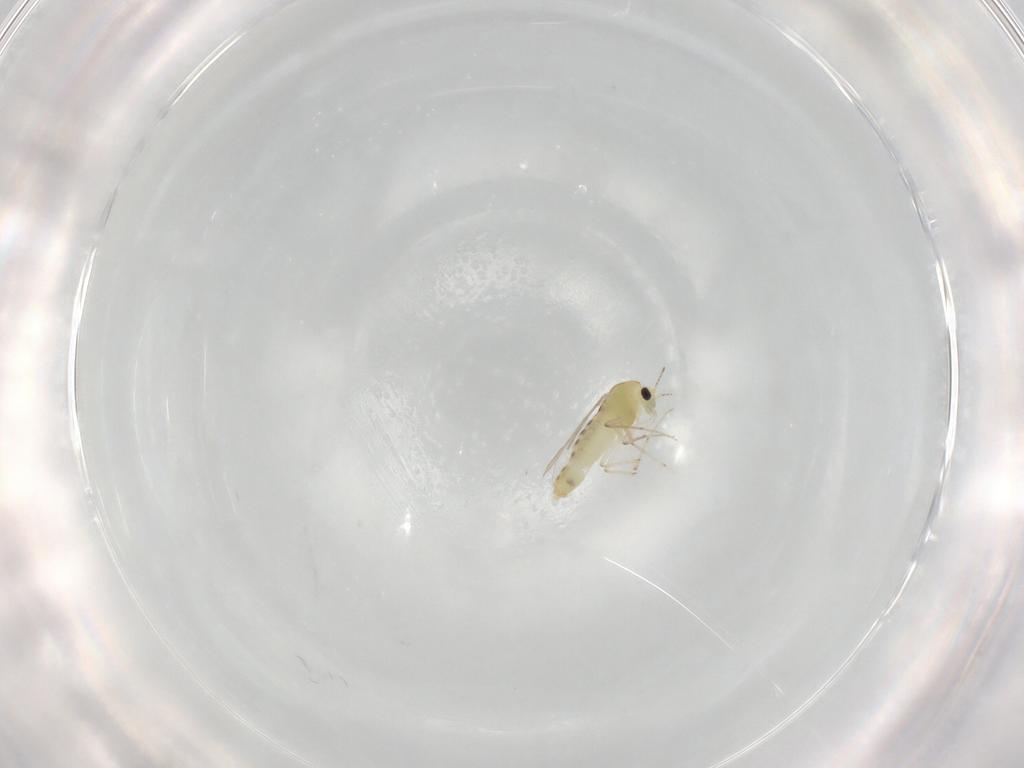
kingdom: Animalia
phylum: Arthropoda
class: Insecta
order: Diptera
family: Chironomidae
